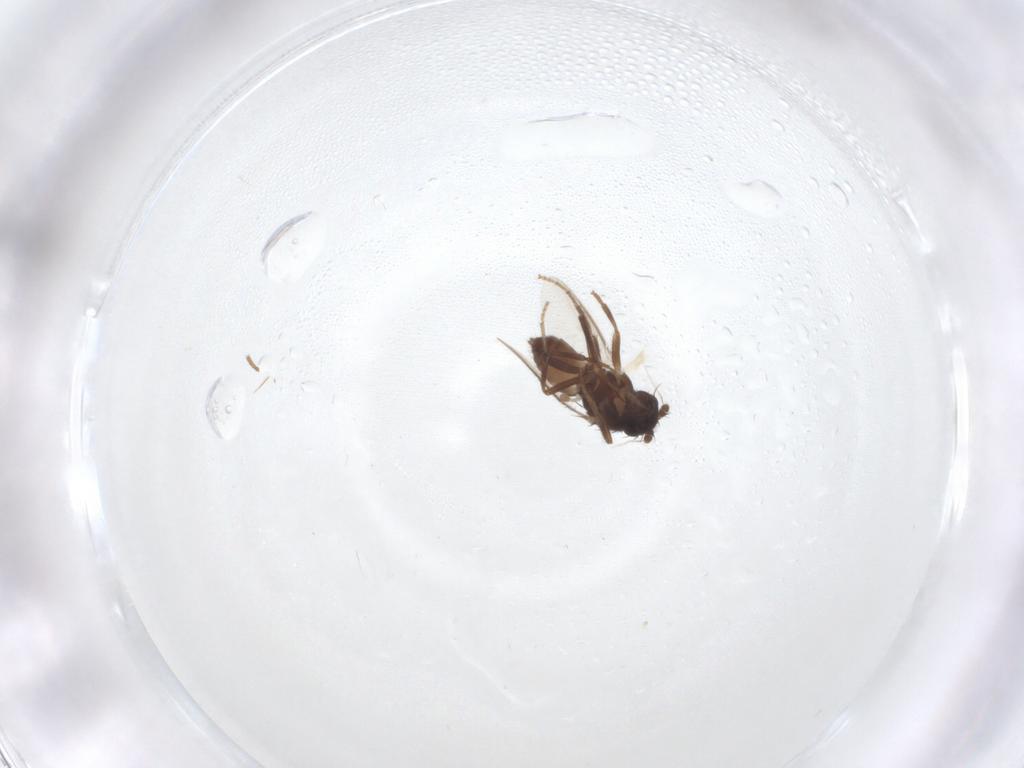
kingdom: Animalia
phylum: Arthropoda
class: Insecta
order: Diptera
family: Sphaeroceridae
